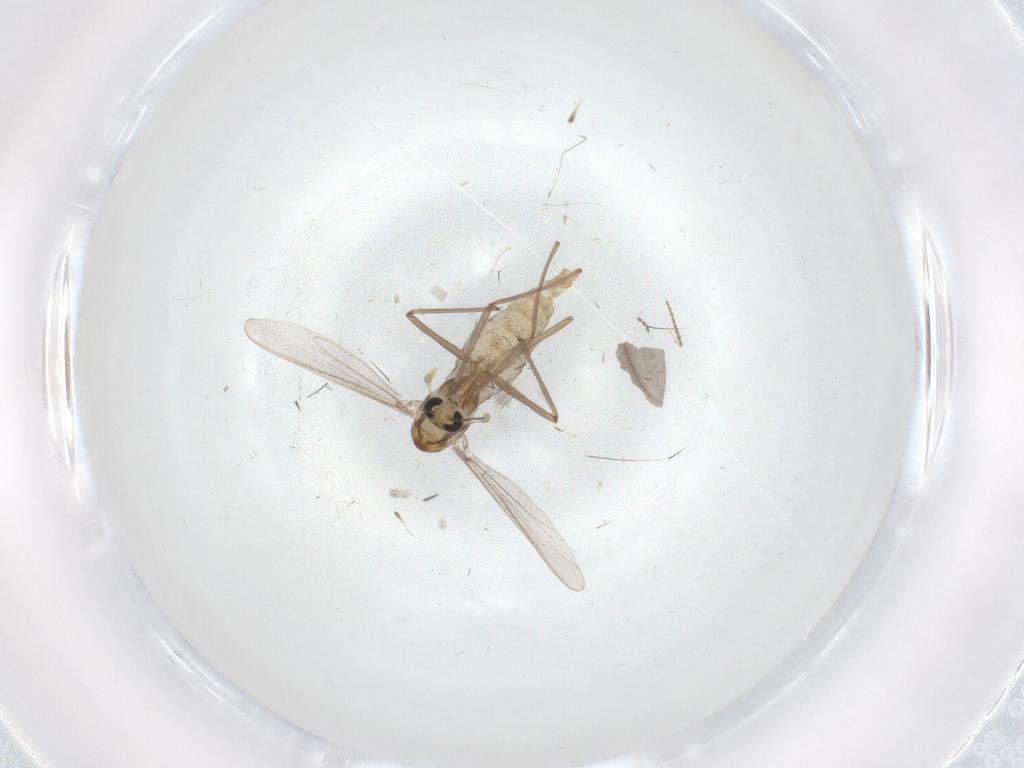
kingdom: Animalia
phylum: Arthropoda
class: Insecta
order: Diptera
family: Chironomidae
